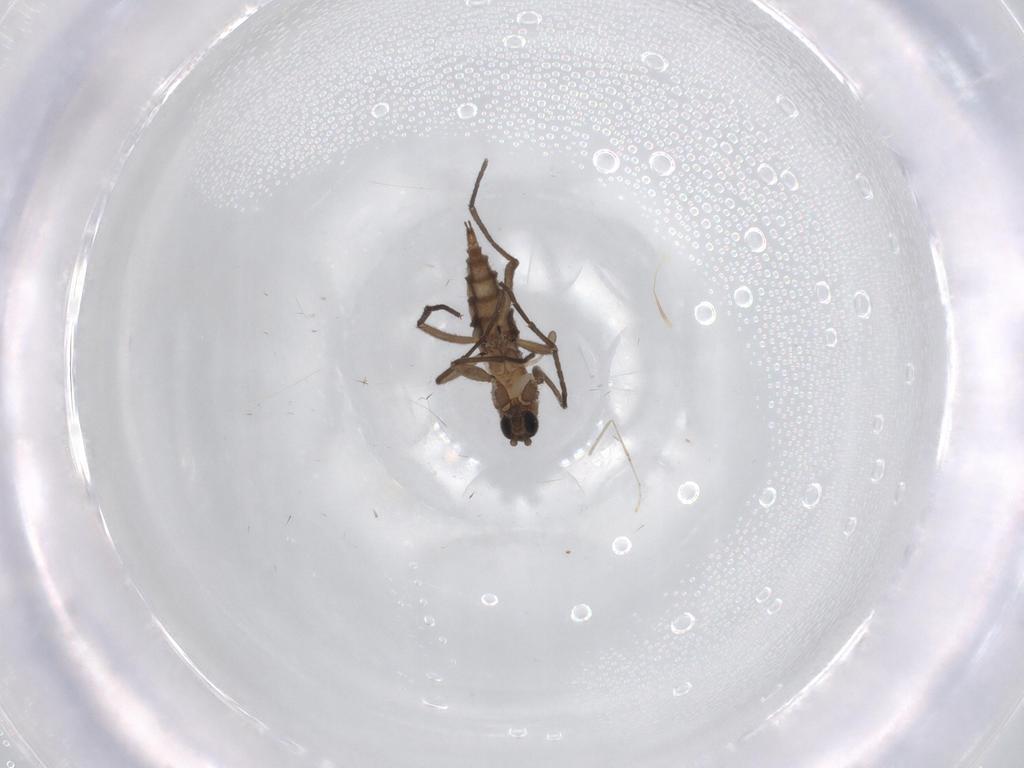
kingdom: Animalia
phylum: Arthropoda
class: Insecta
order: Diptera
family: Sciaridae
